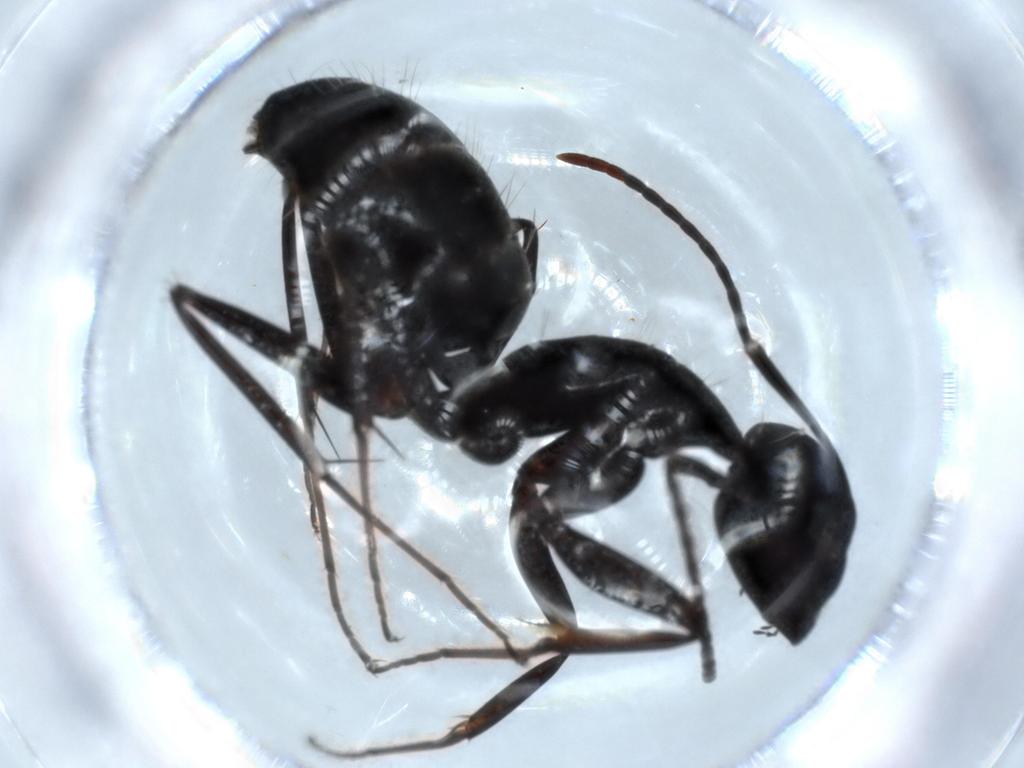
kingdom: Animalia
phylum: Arthropoda
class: Insecta
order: Hymenoptera
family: Formicidae
